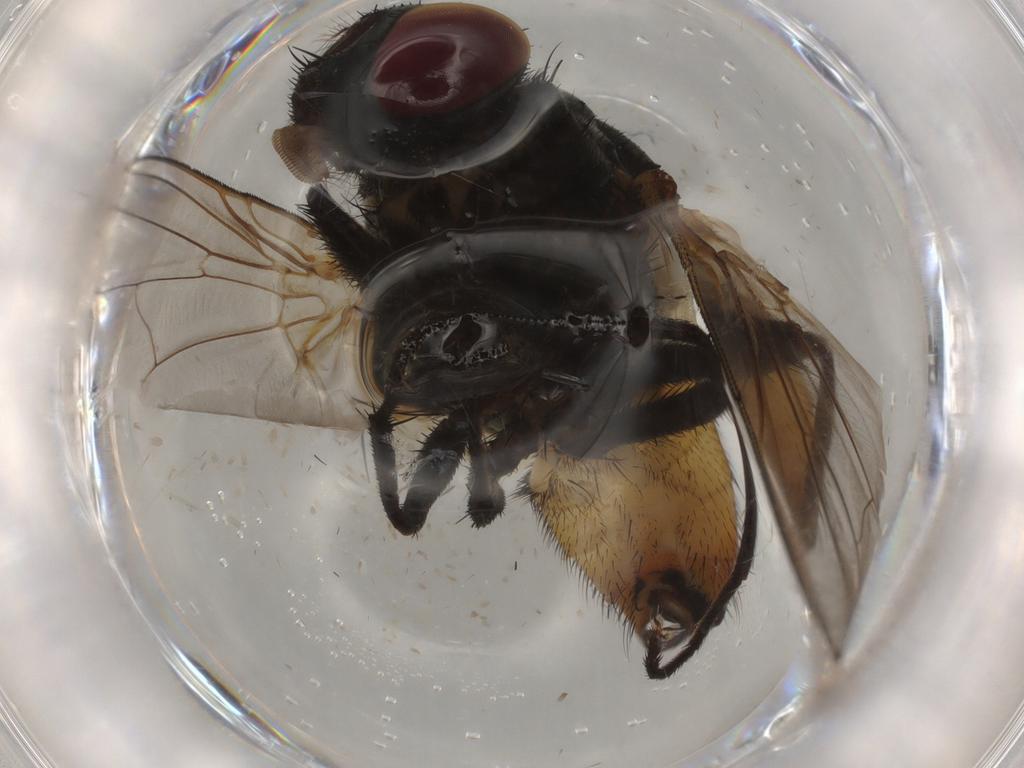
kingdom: Animalia
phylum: Arthropoda
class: Insecta
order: Diptera
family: Muscidae
